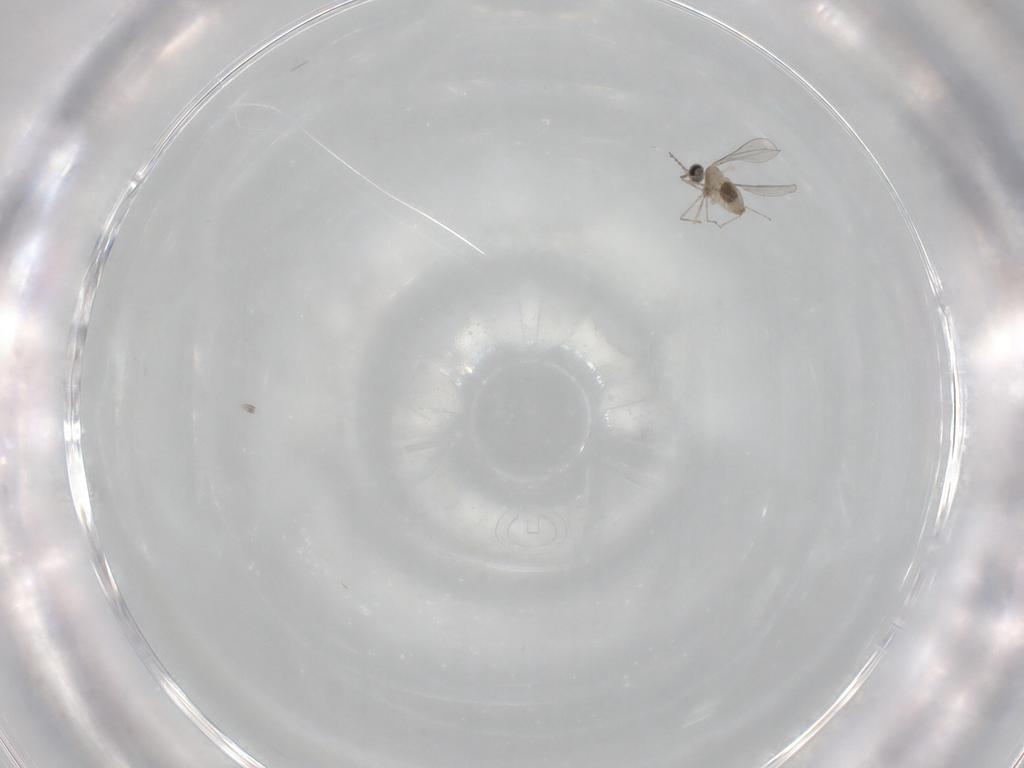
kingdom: Animalia
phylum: Arthropoda
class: Insecta
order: Diptera
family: Cecidomyiidae
